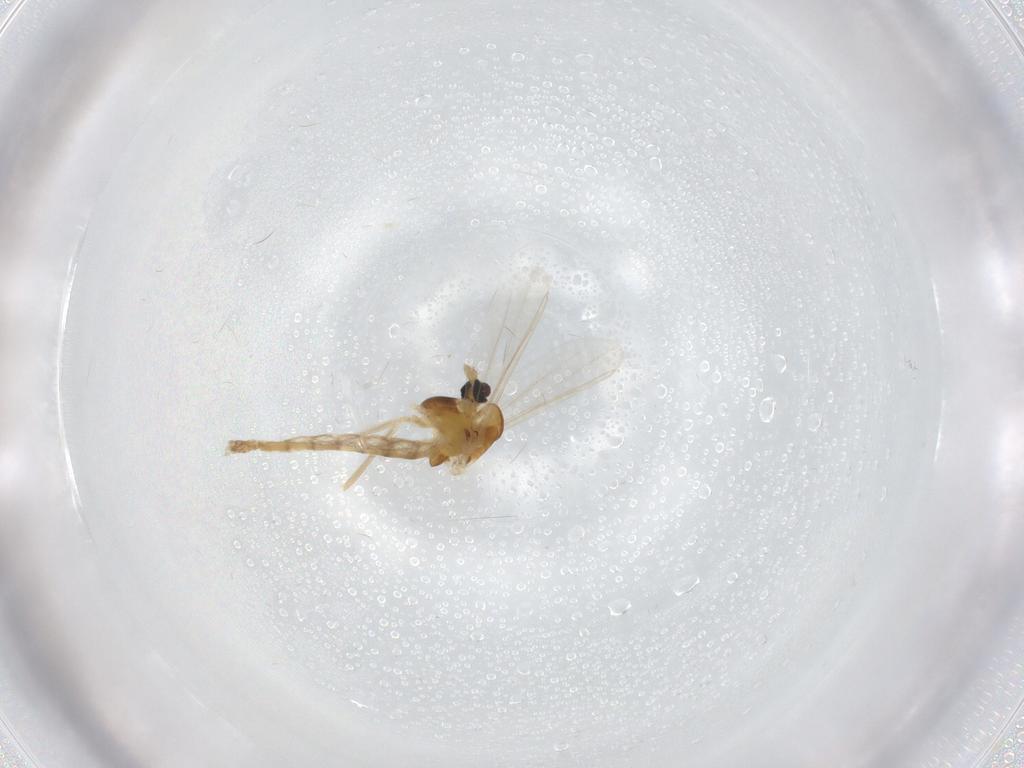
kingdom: Animalia
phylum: Arthropoda
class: Insecta
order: Diptera
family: Chironomidae
